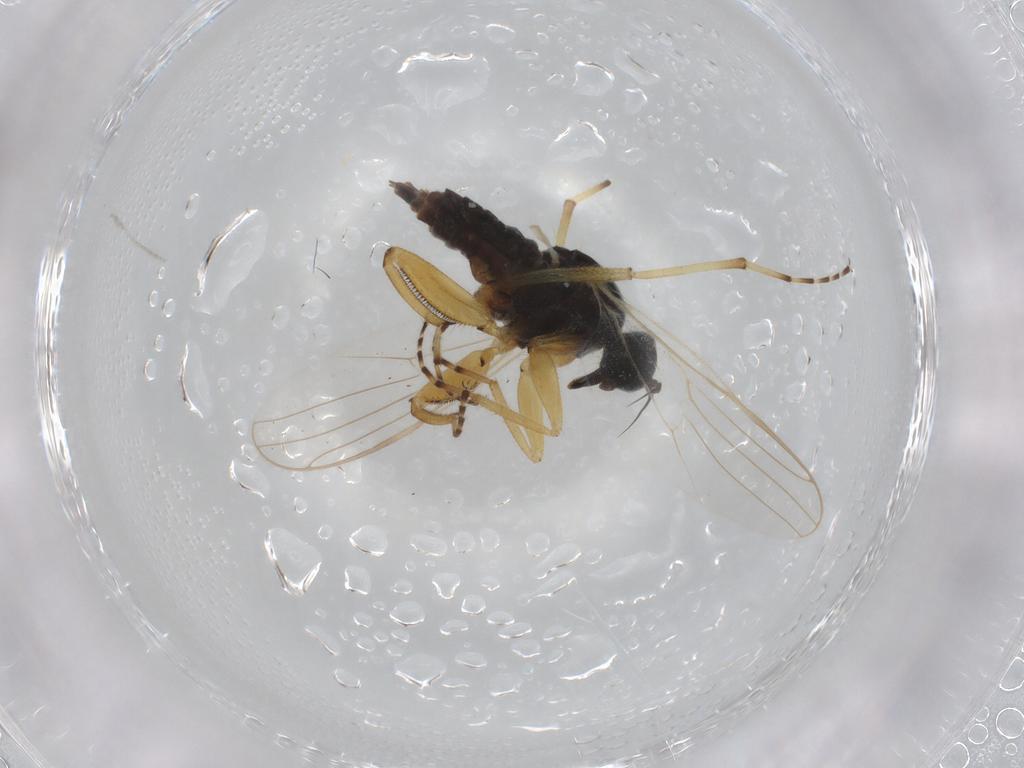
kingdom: Animalia
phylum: Arthropoda
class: Insecta
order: Diptera
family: Hybotidae
